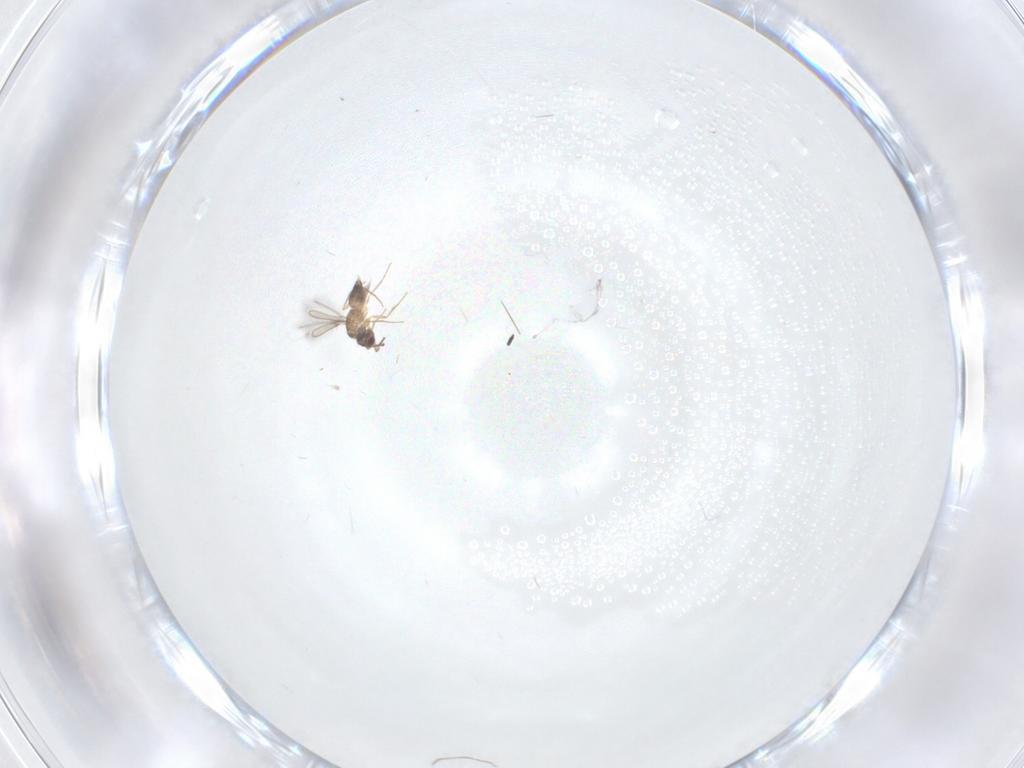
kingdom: Animalia
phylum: Arthropoda
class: Insecta
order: Hymenoptera
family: Mymaridae
